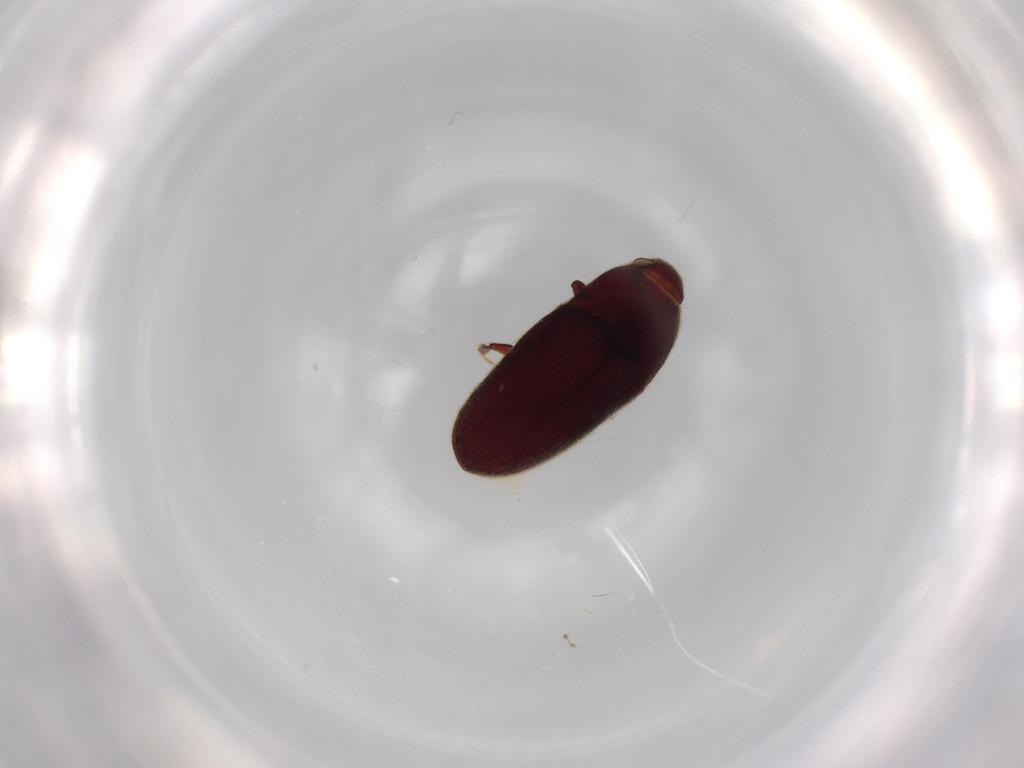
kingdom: Animalia
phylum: Arthropoda
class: Insecta
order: Coleoptera
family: Throscidae
